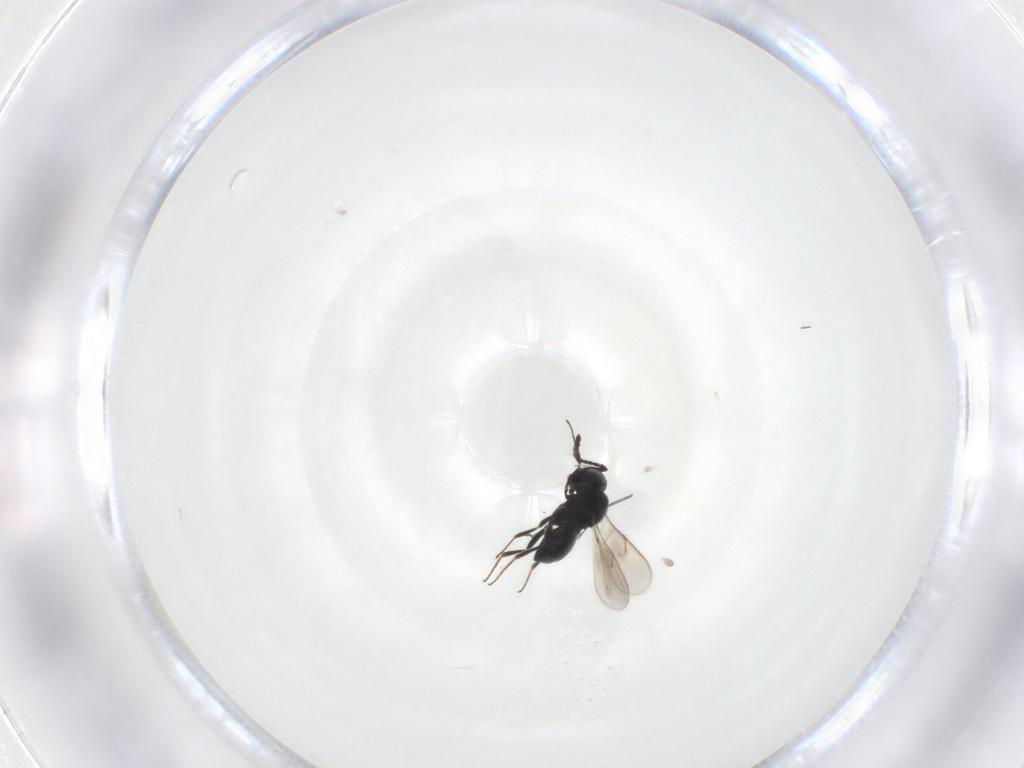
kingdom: Animalia
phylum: Arthropoda
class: Insecta
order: Hymenoptera
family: Scelionidae
